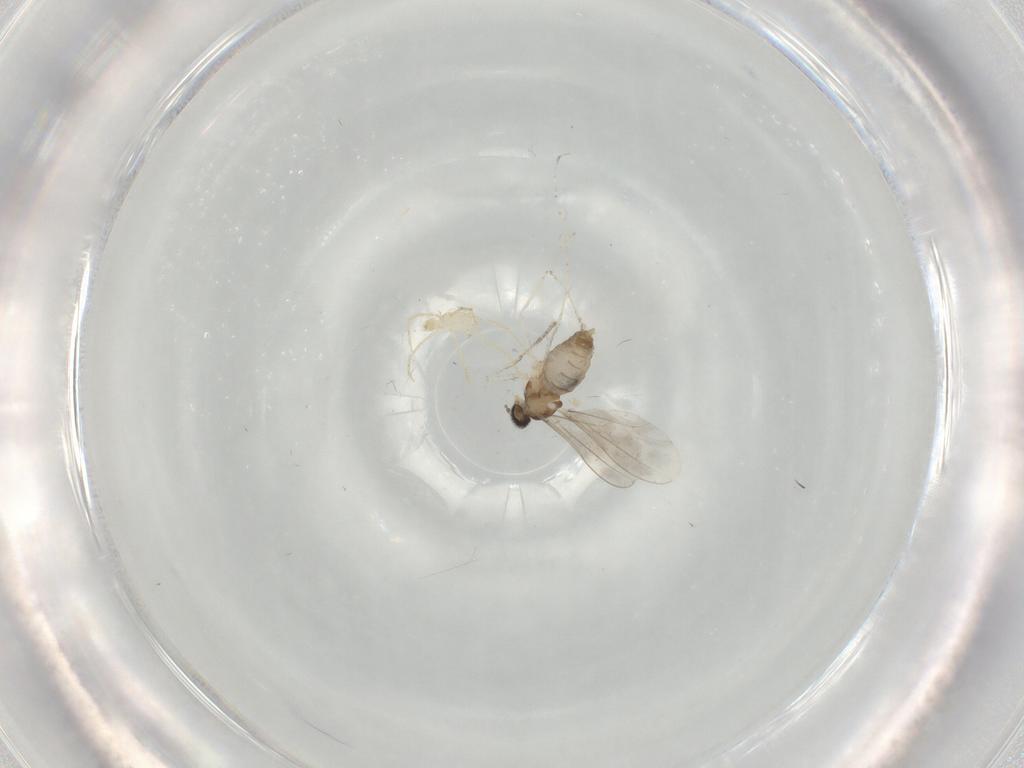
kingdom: Animalia
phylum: Arthropoda
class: Insecta
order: Diptera
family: Cecidomyiidae
